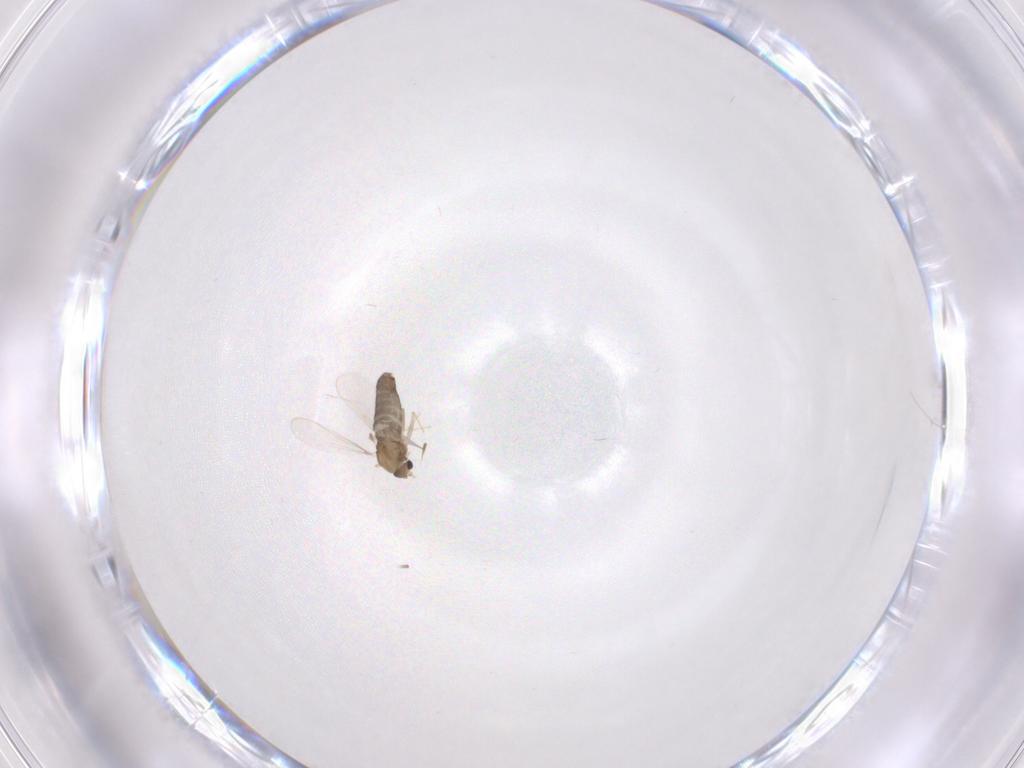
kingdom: Animalia
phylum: Arthropoda
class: Insecta
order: Diptera
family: Chironomidae
